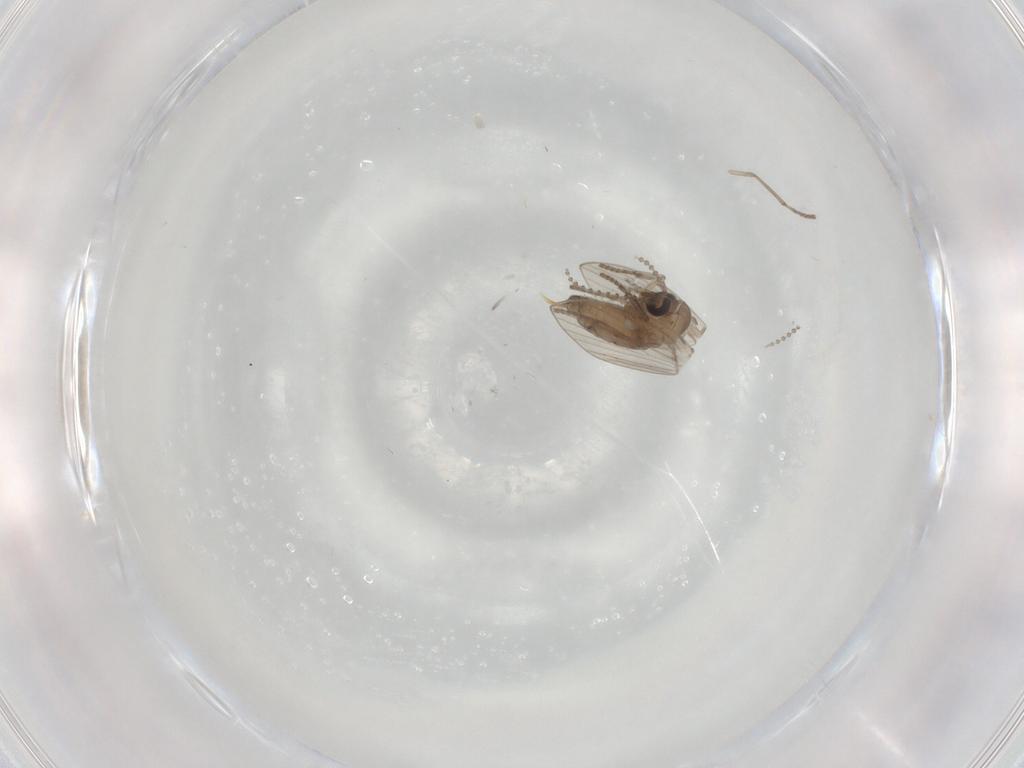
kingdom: Animalia
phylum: Arthropoda
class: Insecta
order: Diptera
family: Psychodidae
